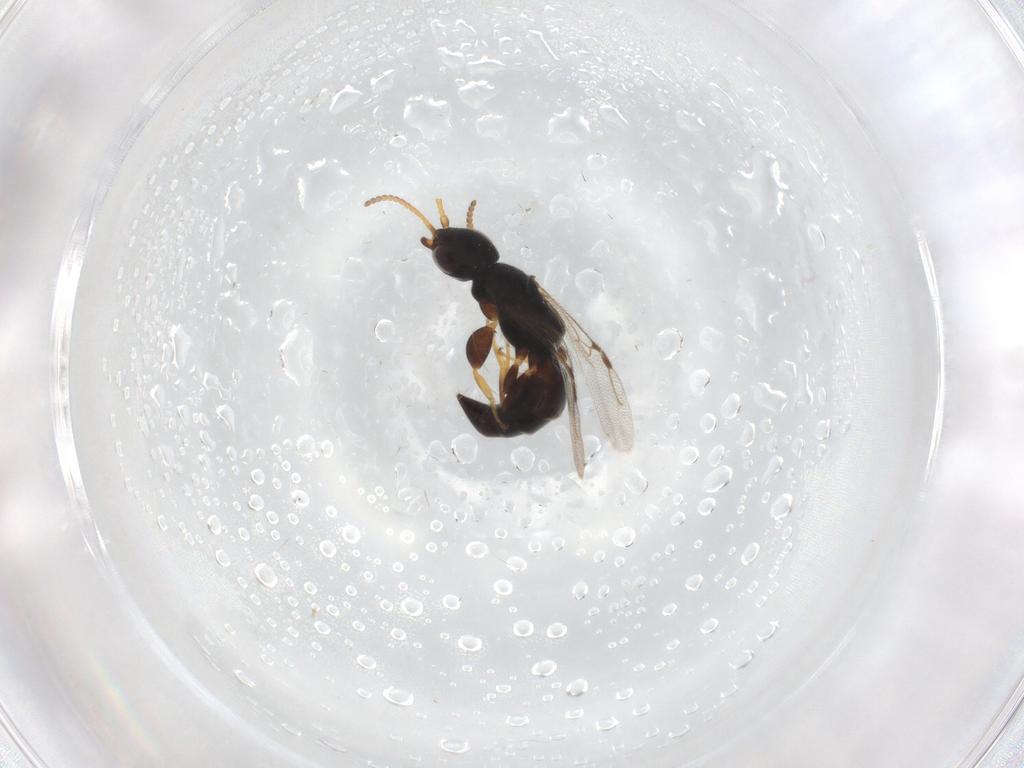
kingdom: Animalia
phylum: Arthropoda
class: Insecta
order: Hymenoptera
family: Bethylidae
